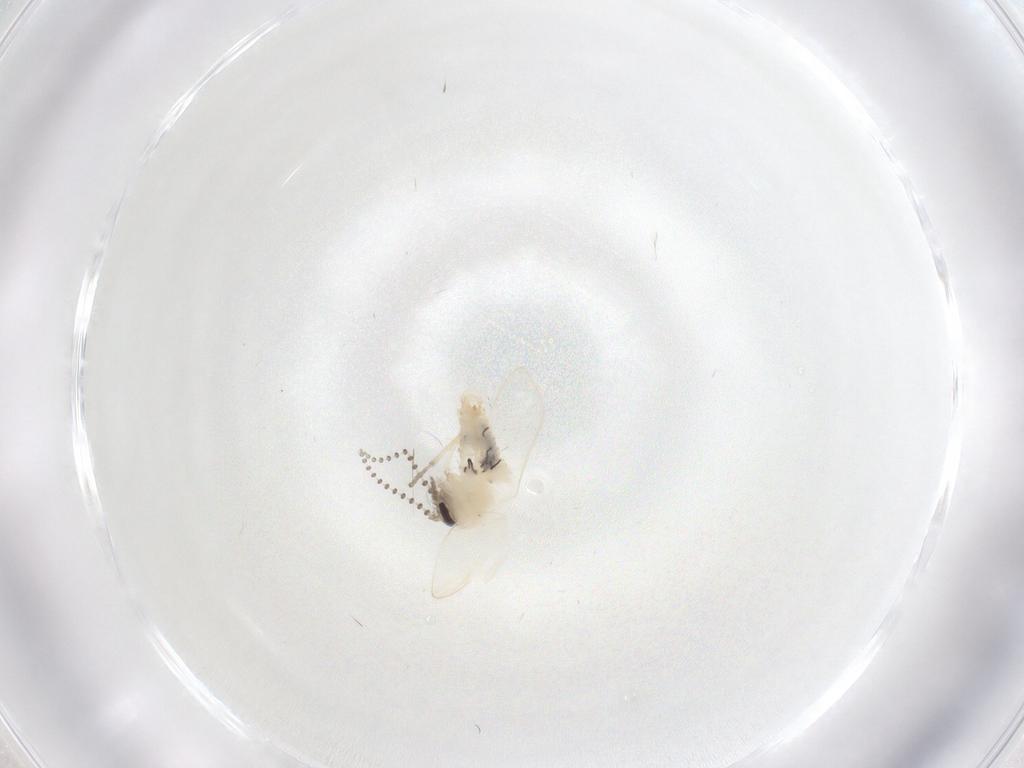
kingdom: Animalia
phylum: Arthropoda
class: Insecta
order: Diptera
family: Psychodidae
